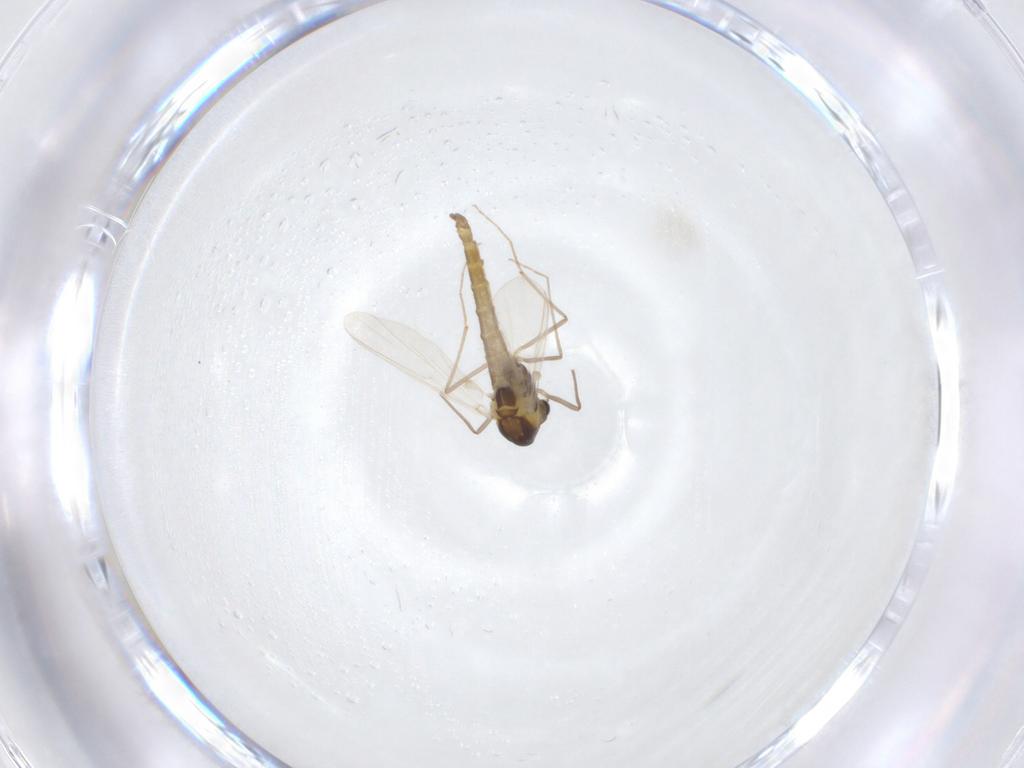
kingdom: Animalia
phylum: Arthropoda
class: Insecta
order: Diptera
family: Chironomidae
